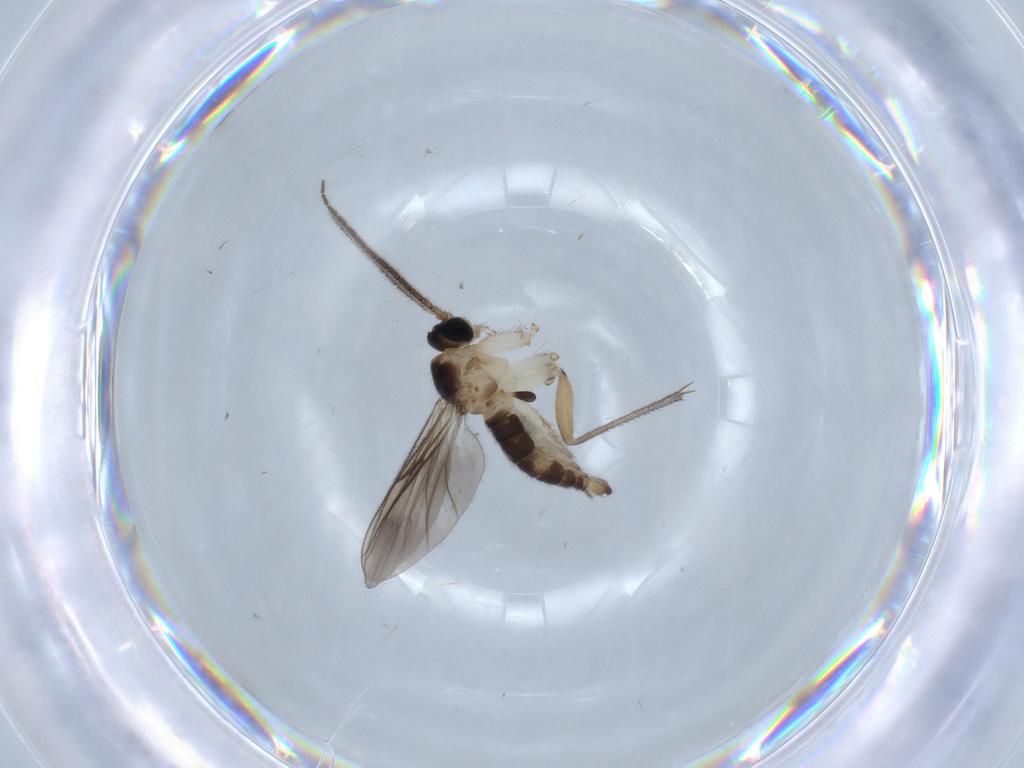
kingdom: Animalia
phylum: Arthropoda
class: Insecta
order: Diptera
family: Sciaridae
